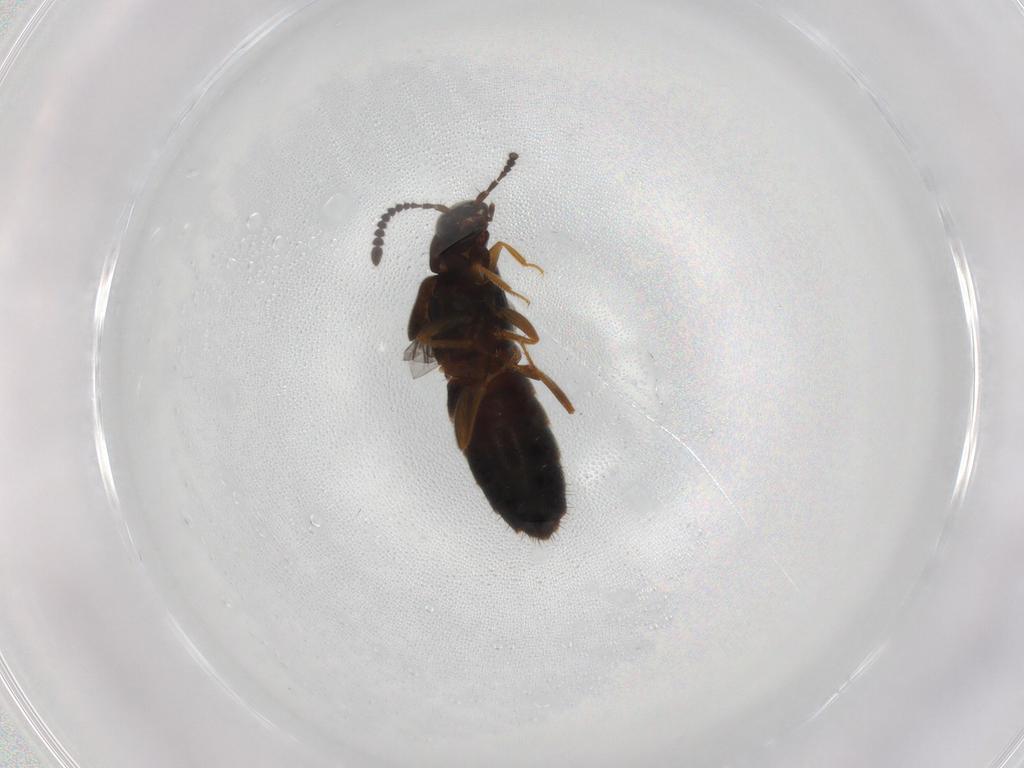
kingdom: Animalia
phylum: Arthropoda
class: Insecta
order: Coleoptera
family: Staphylinidae
